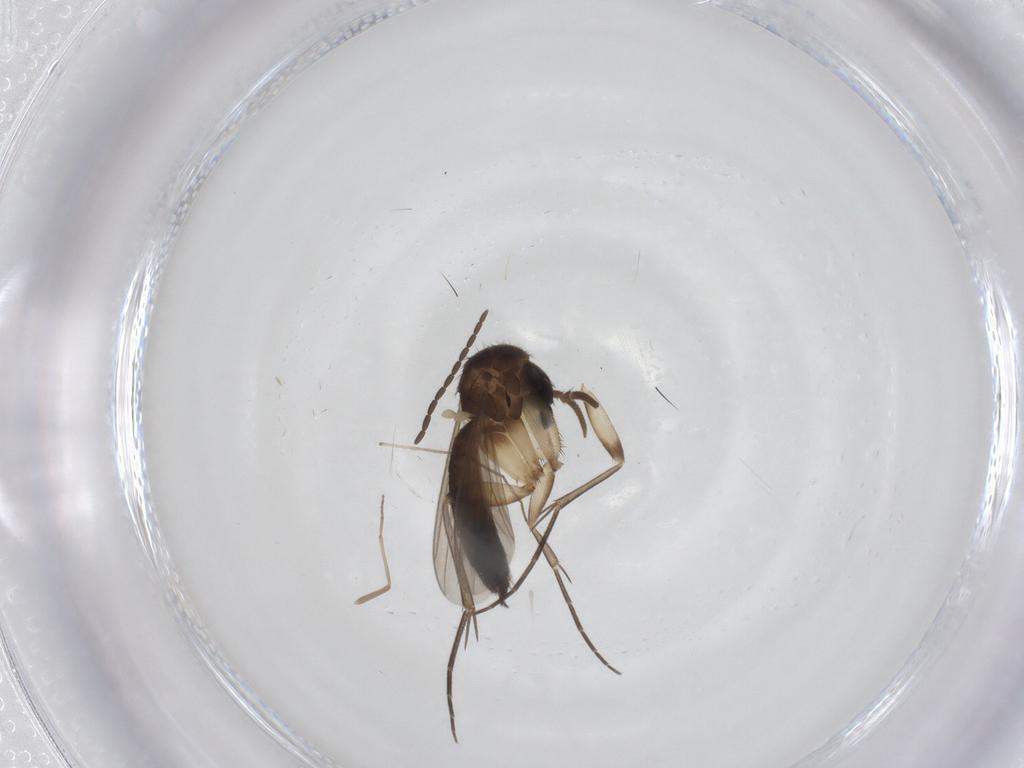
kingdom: Animalia
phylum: Arthropoda
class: Insecta
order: Diptera
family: Mycetophilidae
